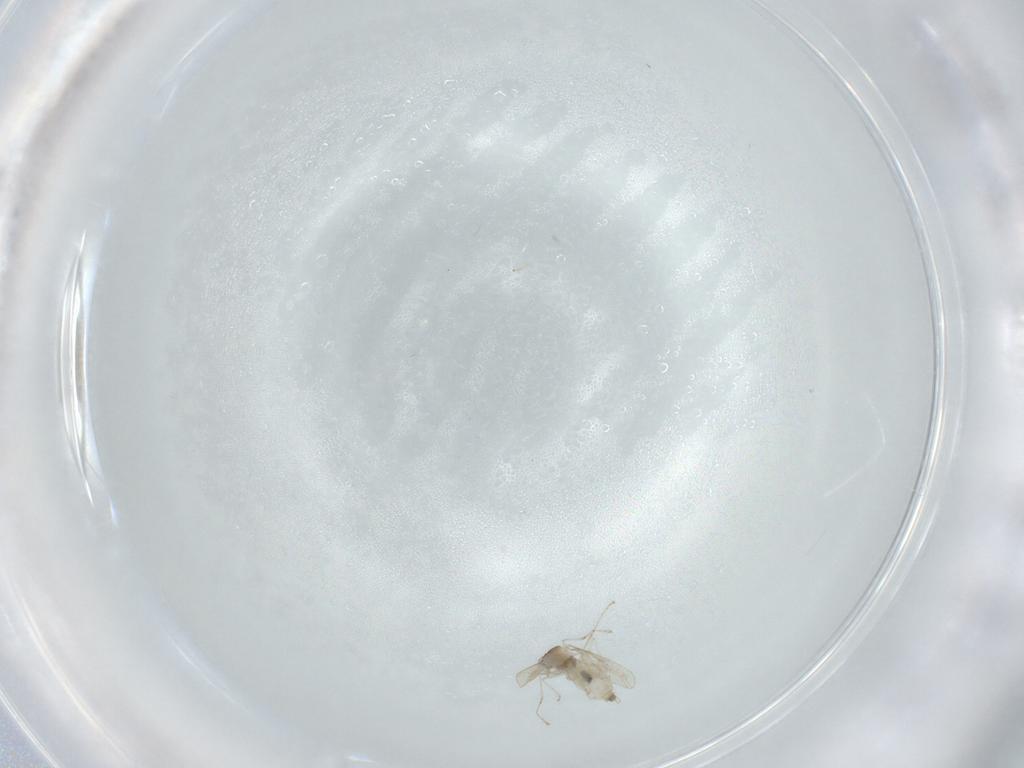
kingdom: Animalia
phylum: Arthropoda
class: Insecta
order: Diptera
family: Cecidomyiidae
